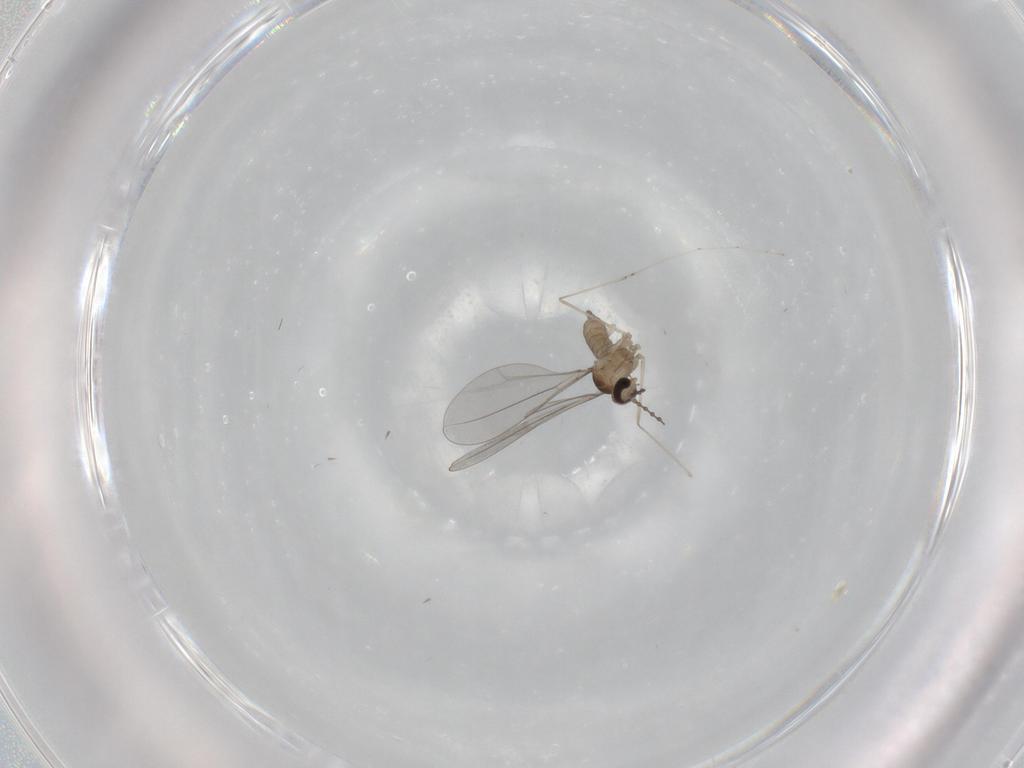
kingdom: Animalia
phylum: Arthropoda
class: Insecta
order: Diptera
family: Cecidomyiidae
